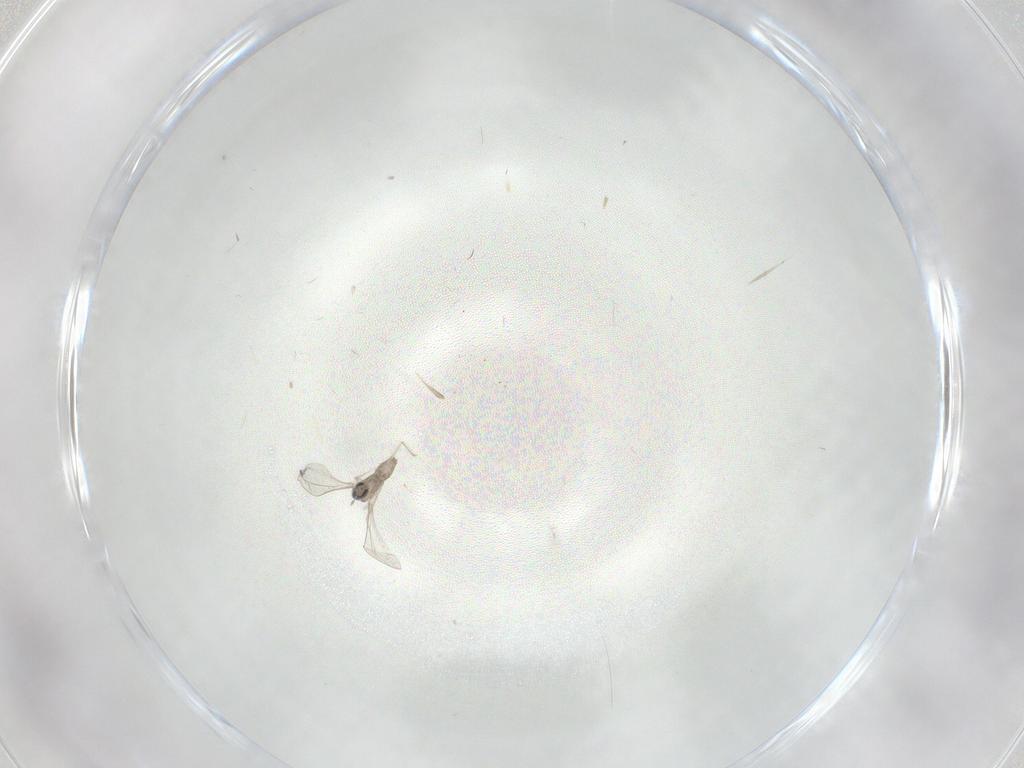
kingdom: Animalia
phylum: Arthropoda
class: Insecta
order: Diptera
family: Cecidomyiidae
